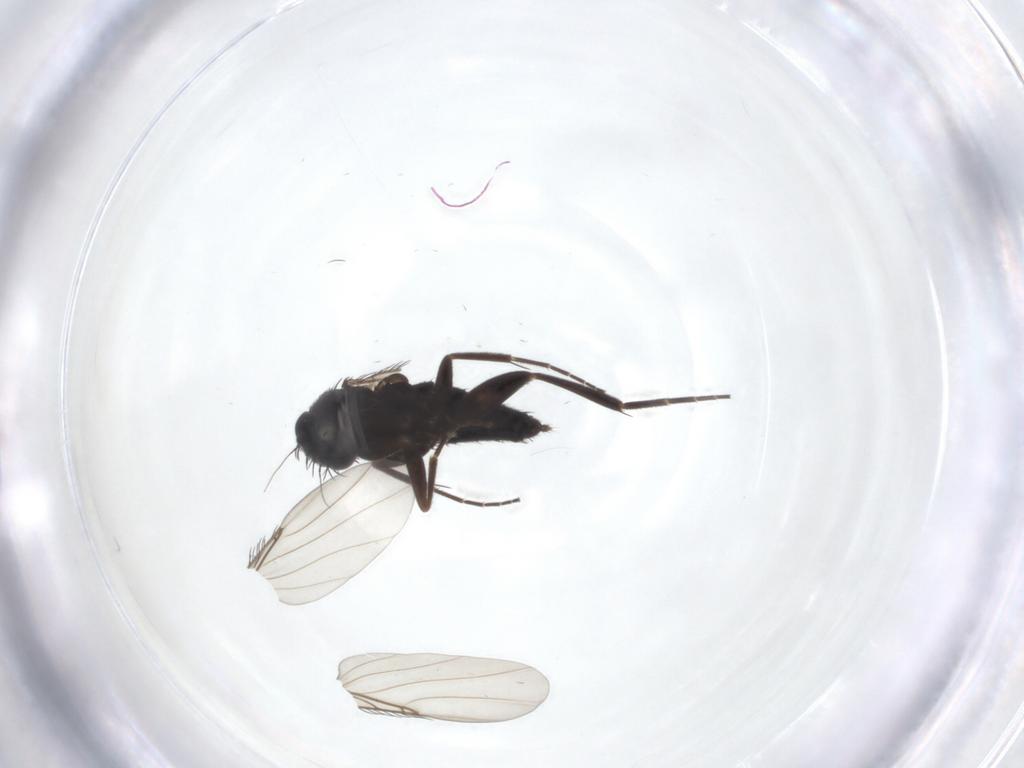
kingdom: Animalia
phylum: Arthropoda
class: Insecta
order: Diptera
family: Phoridae
